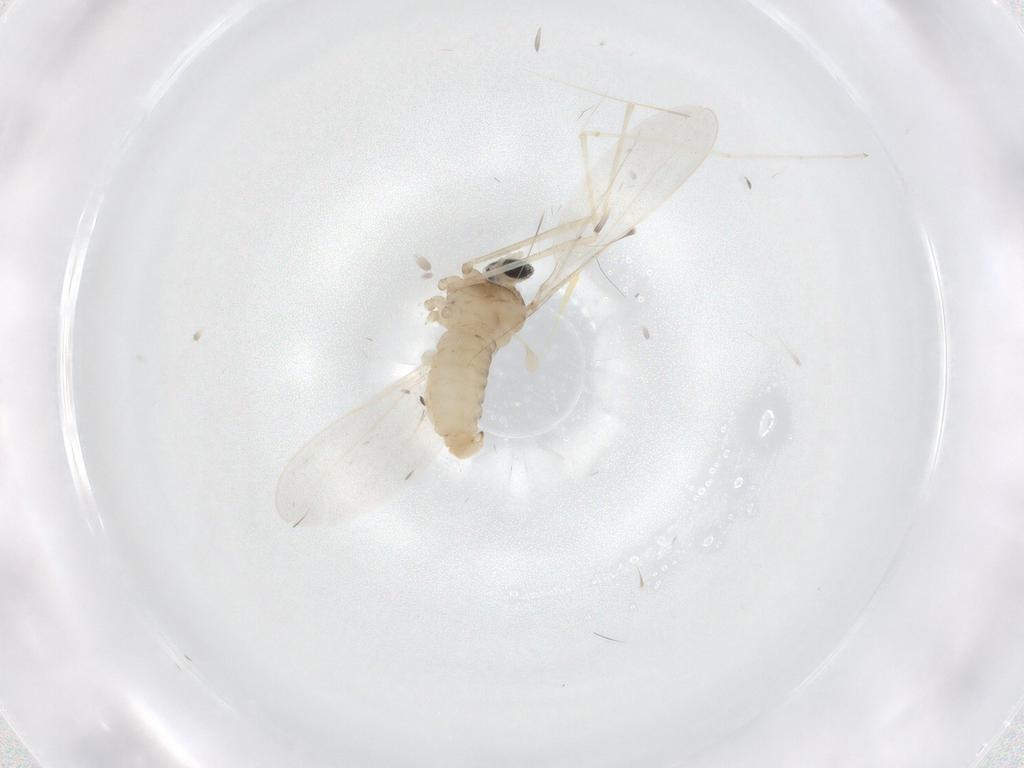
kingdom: Animalia
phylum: Arthropoda
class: Insecta
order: Diptera
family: Cecidomyiidae
